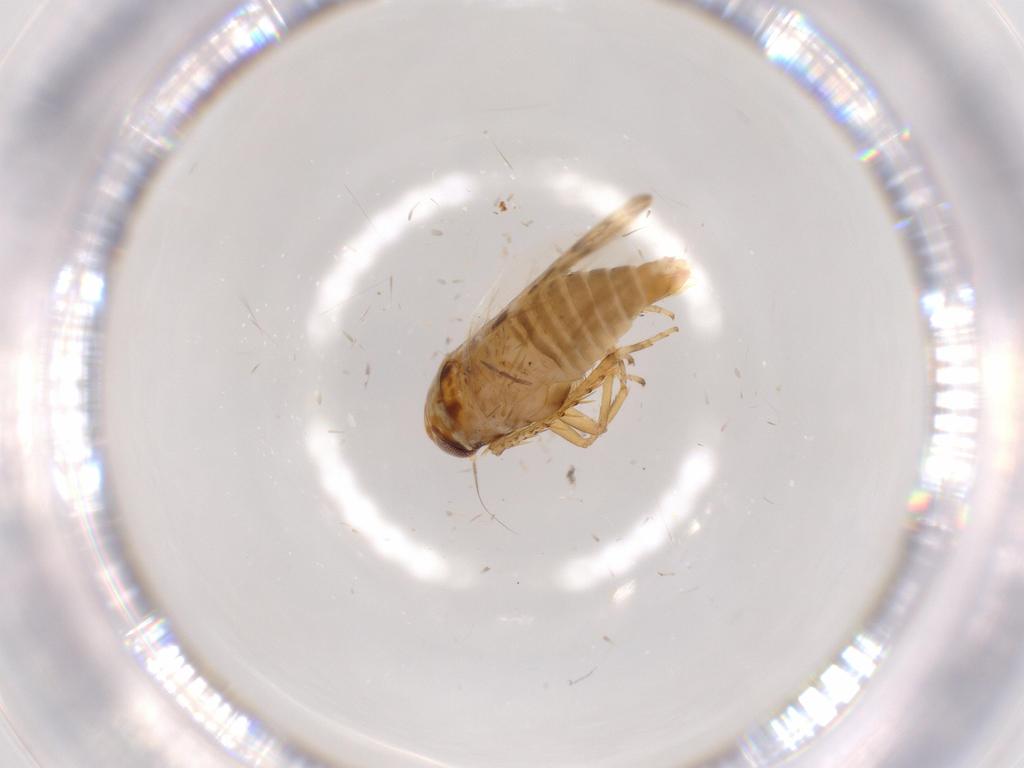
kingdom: Animalia
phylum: Arthropoda
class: Insecta
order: Hemiptera
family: Cicadellidae
